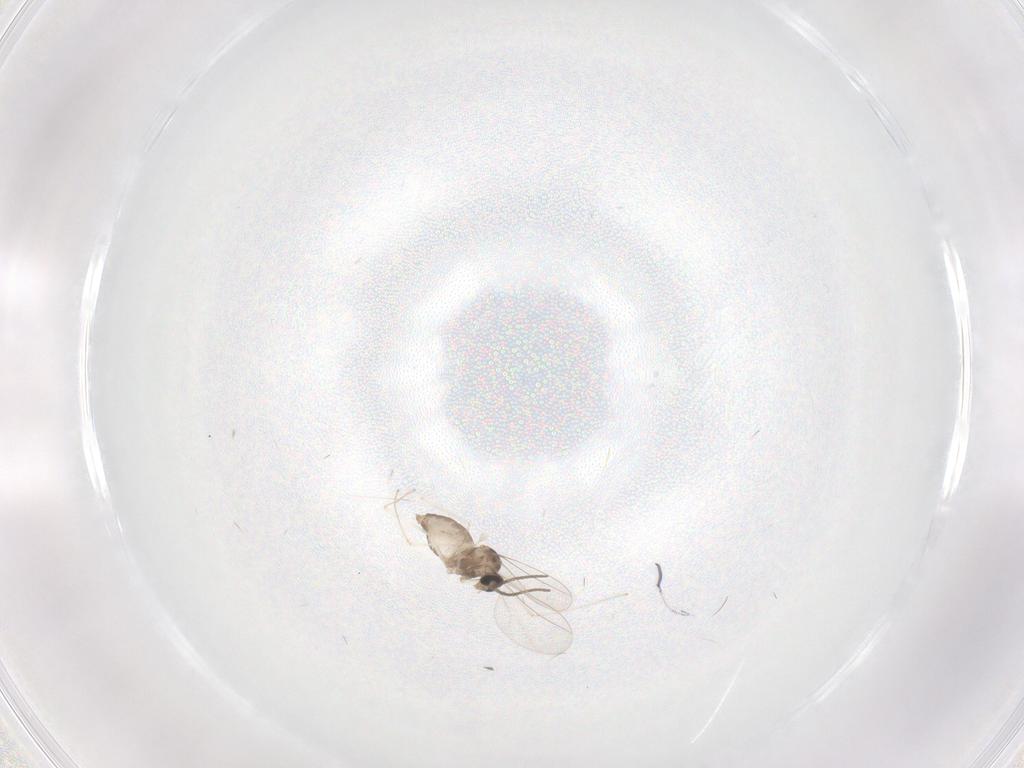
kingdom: Animalia
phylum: Arthropoda
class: Insecta
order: Diptera
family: Cecidomyiidae
